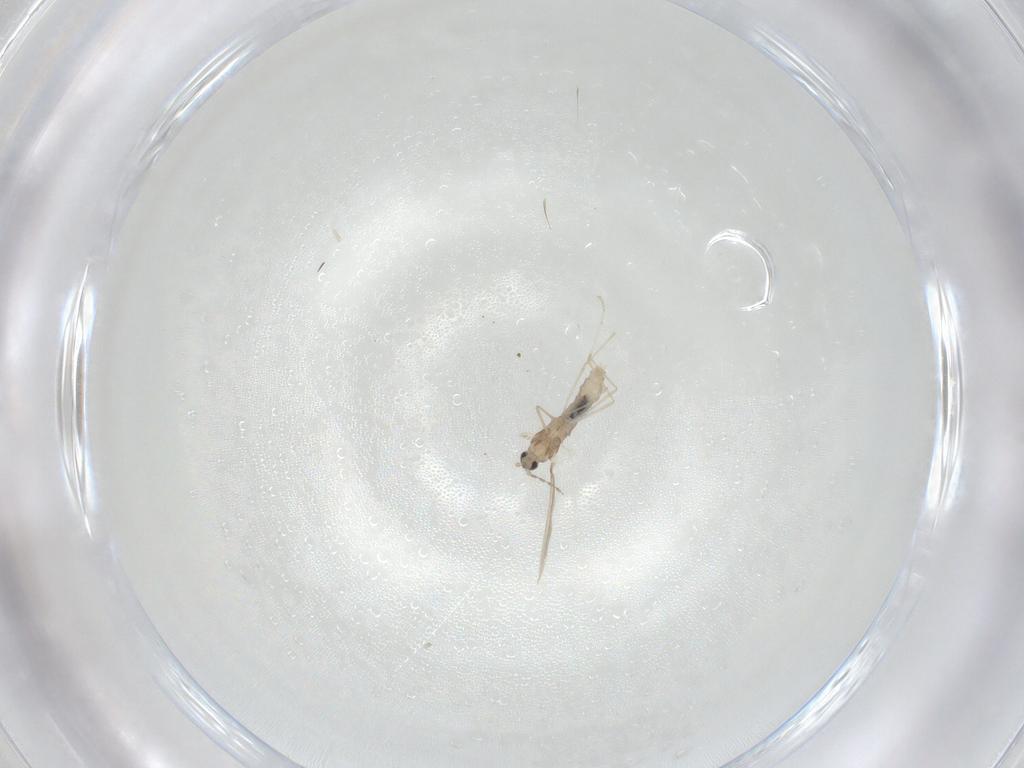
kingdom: Animalia
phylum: Arthropoda
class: Insecta
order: Diptera
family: Cecidomyiidae
